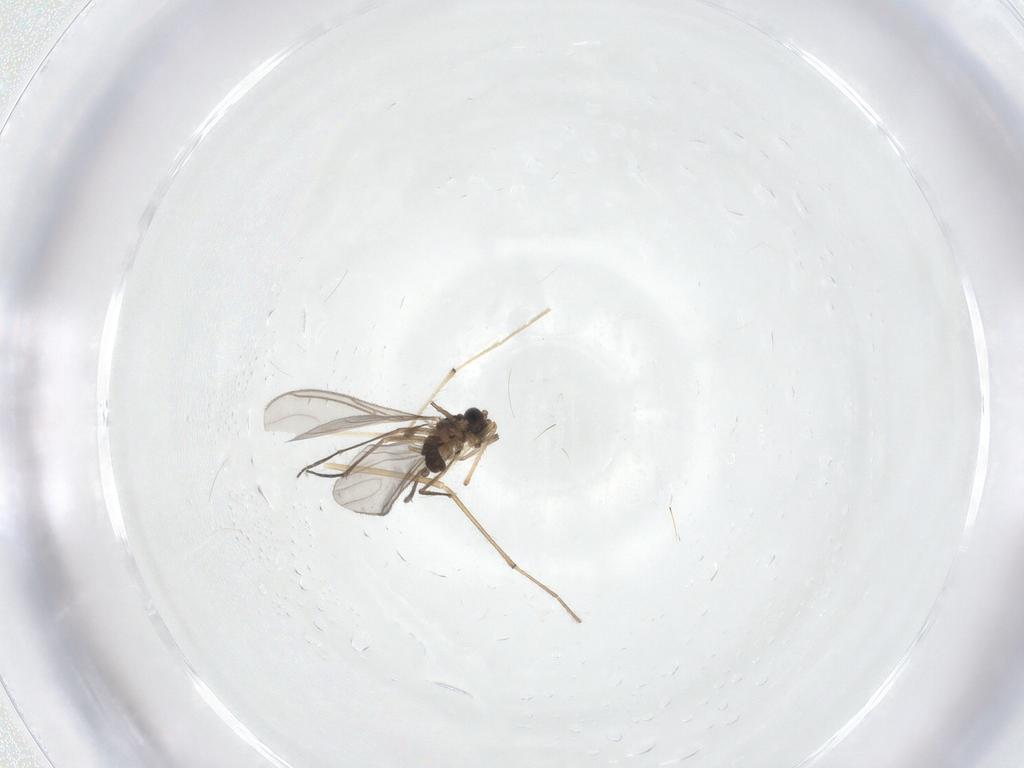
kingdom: Animalia
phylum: Arthropoda
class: Insecta
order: Diptera
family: Sciaridae
